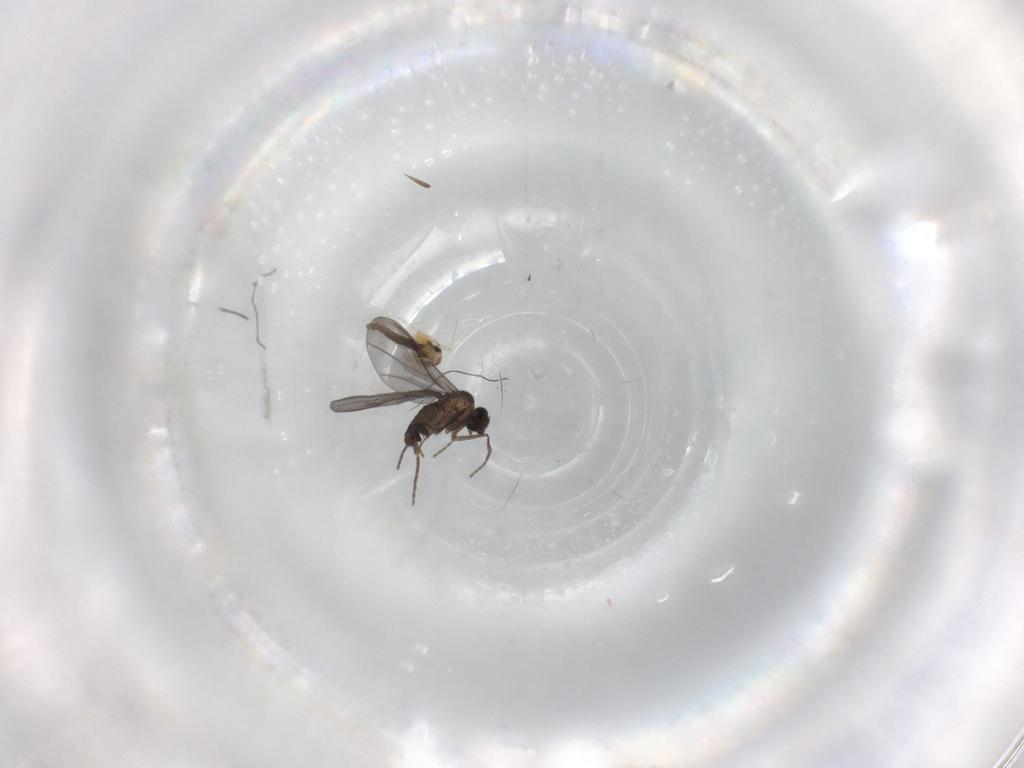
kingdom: Animalia
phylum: Arthropoda
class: Insecta
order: Diptera
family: Chironomidae
